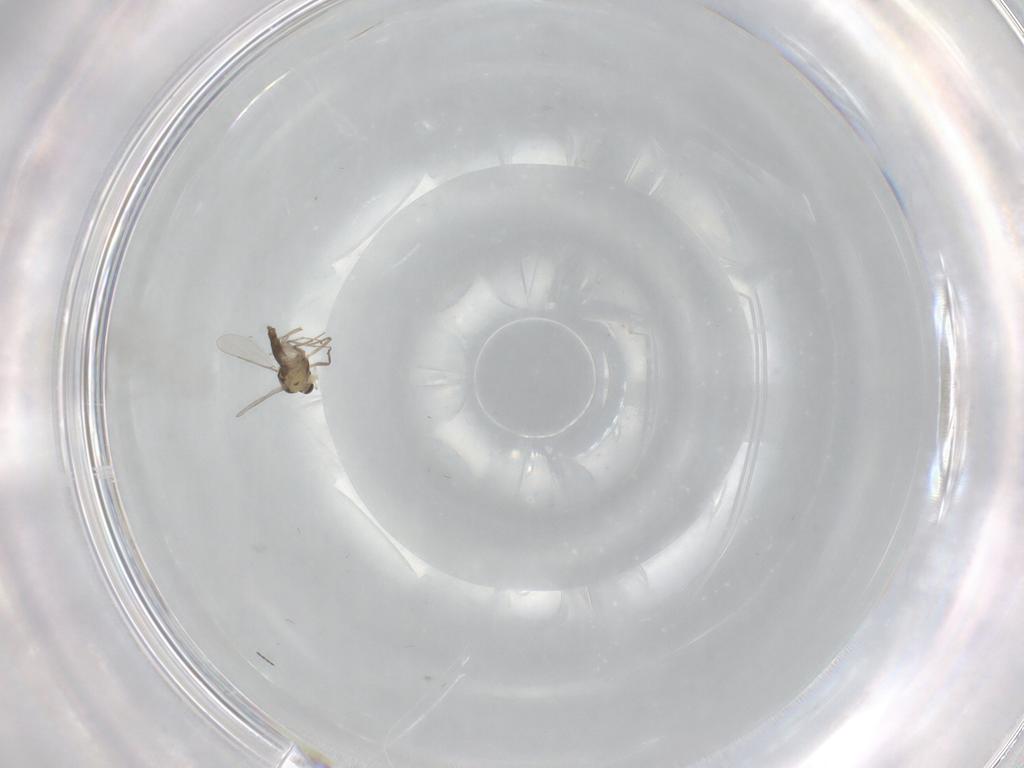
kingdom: Animalia
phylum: Arthropoda
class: Insecta
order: Diptera
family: Chironomidae
